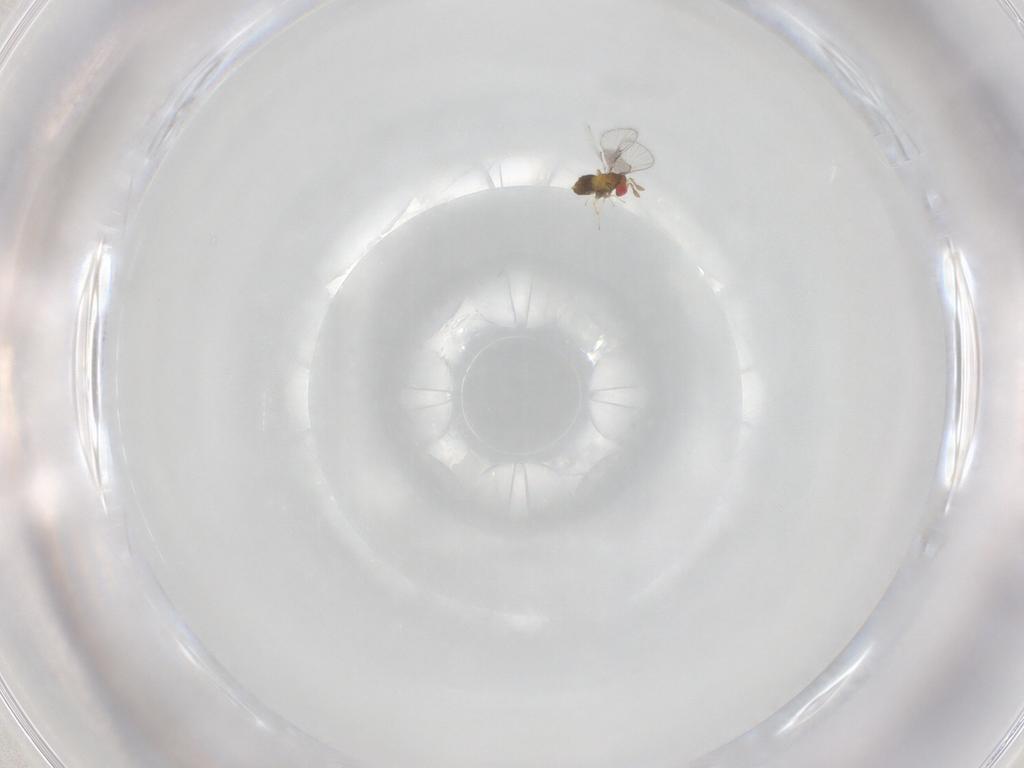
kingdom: Animalia
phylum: Arthropoda
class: Insecta
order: Hymenoptera
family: Trichogrammatidae
